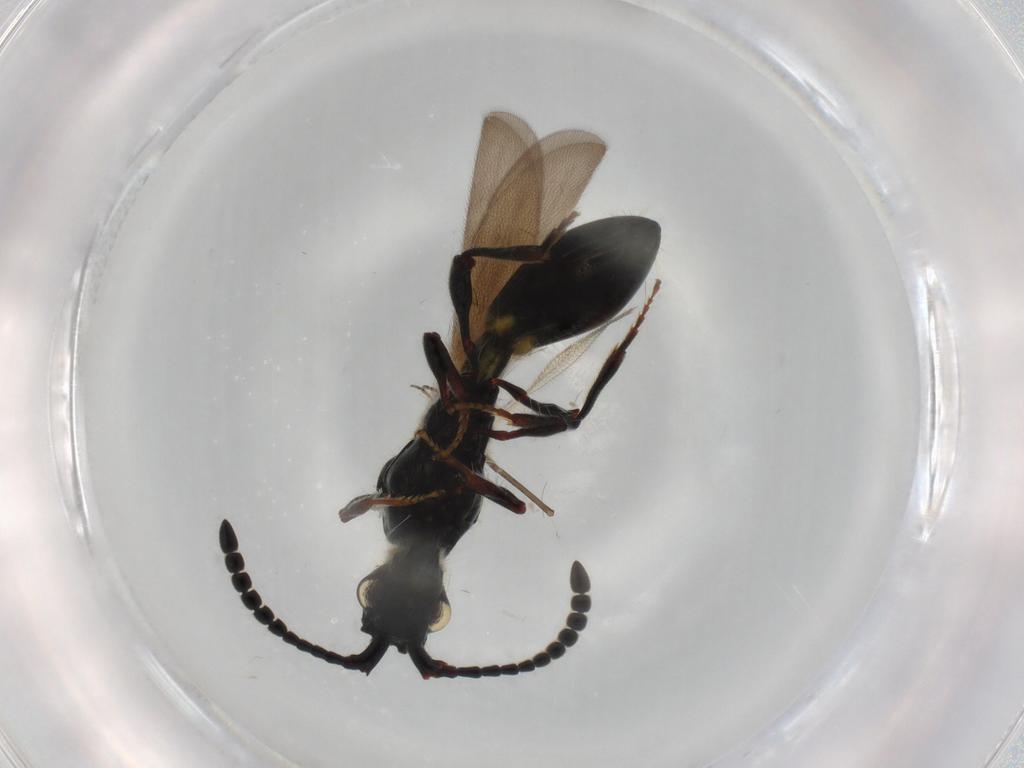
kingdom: Animalia
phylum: Arthropoda
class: Insecta
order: Hymenoptera
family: Diapriidae
